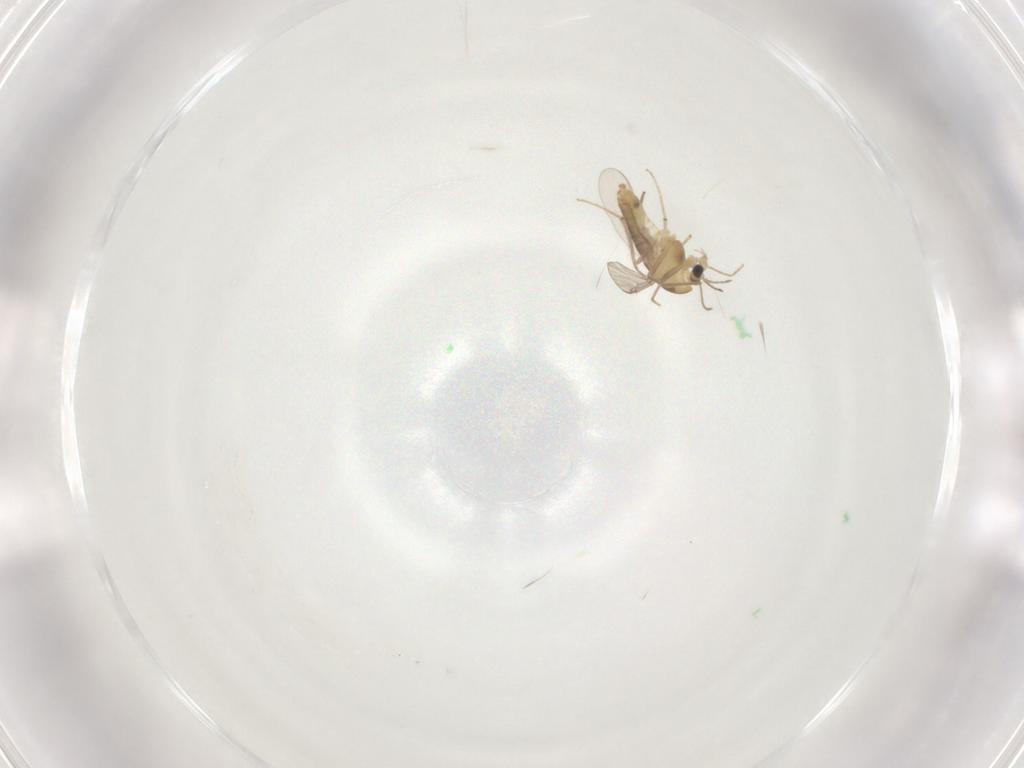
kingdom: Animalia
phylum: Arthropoda
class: Insecta
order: Diptera
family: Chironomidae
